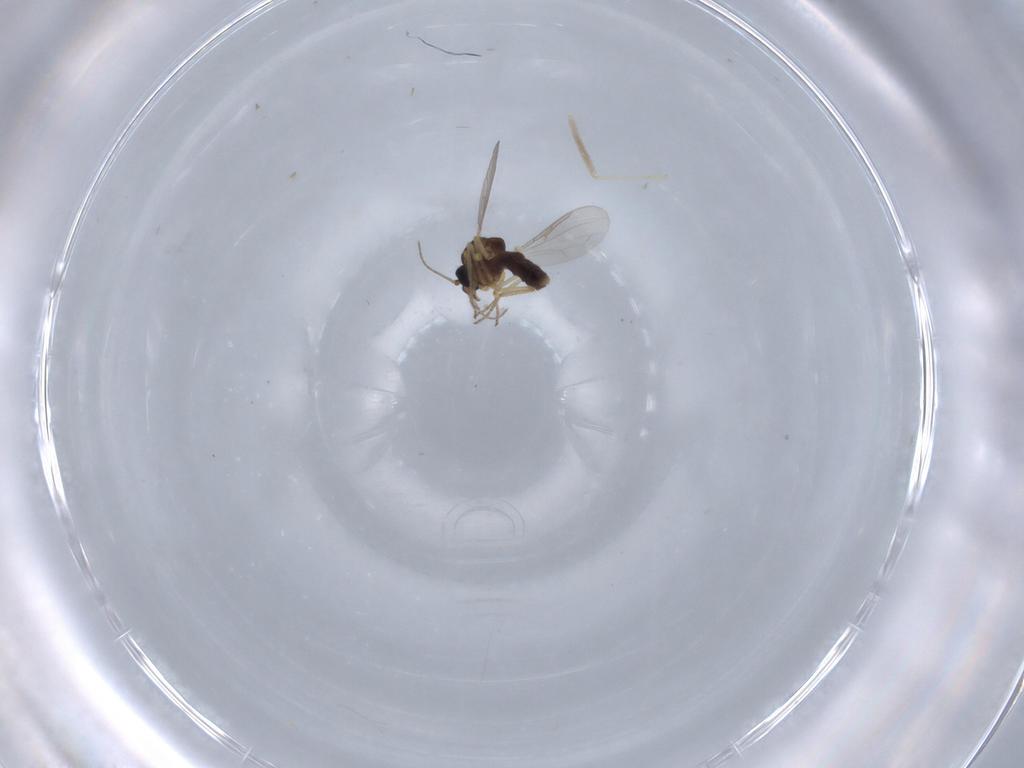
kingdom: Animalia
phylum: Arthropoda
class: Insecta
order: Diptera
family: Ceratopogonidae
